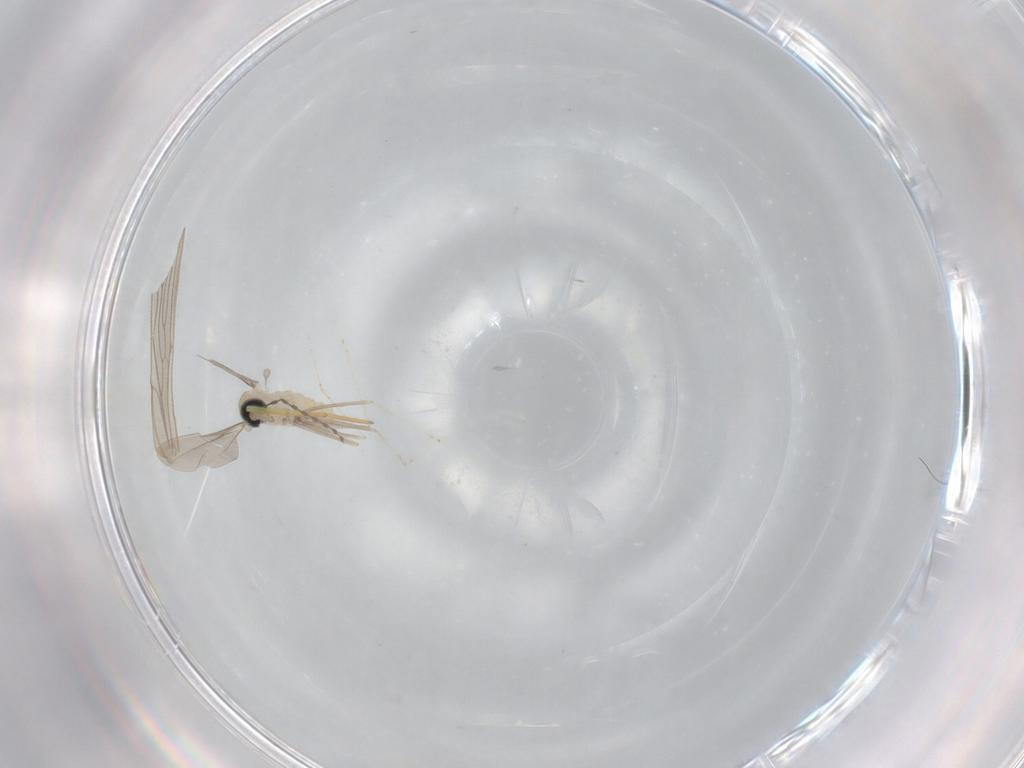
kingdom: Animalia
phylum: Arthropoda
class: Insecta
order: Diptera
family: Cecidomyiidae
